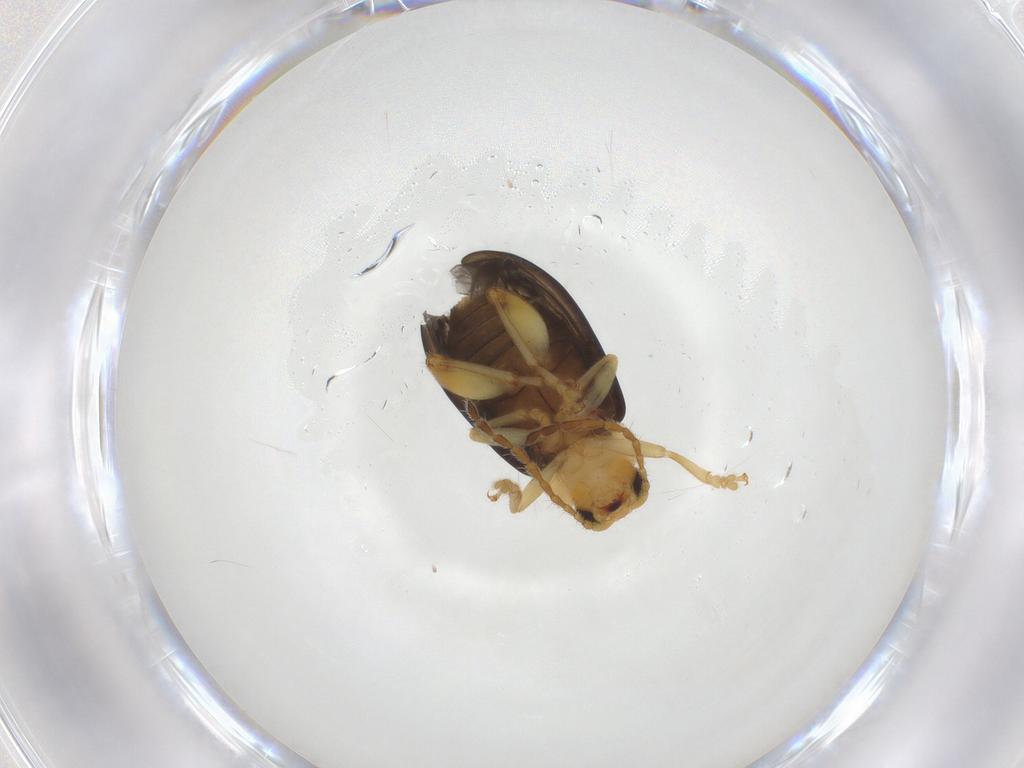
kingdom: Animalia
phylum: Arthropoda
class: Insecta
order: Coleoptera
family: Chrysomelidae
